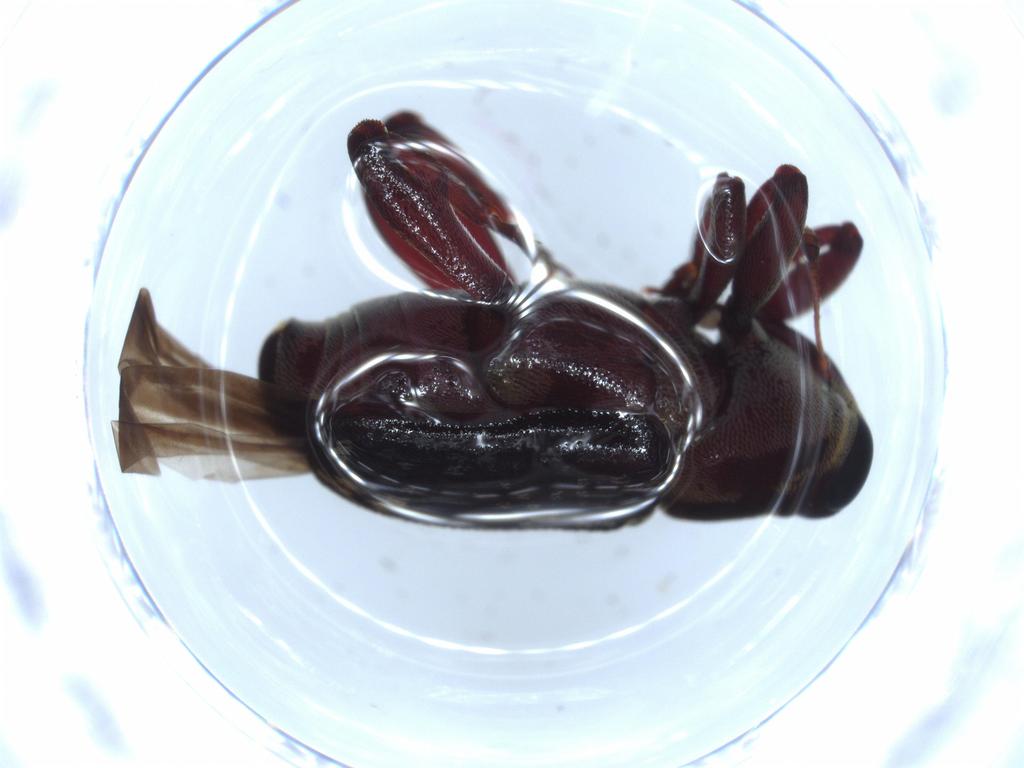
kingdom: Animalia
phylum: Arthropoda
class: Insecta
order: Coleoptera
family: Curculionidae
